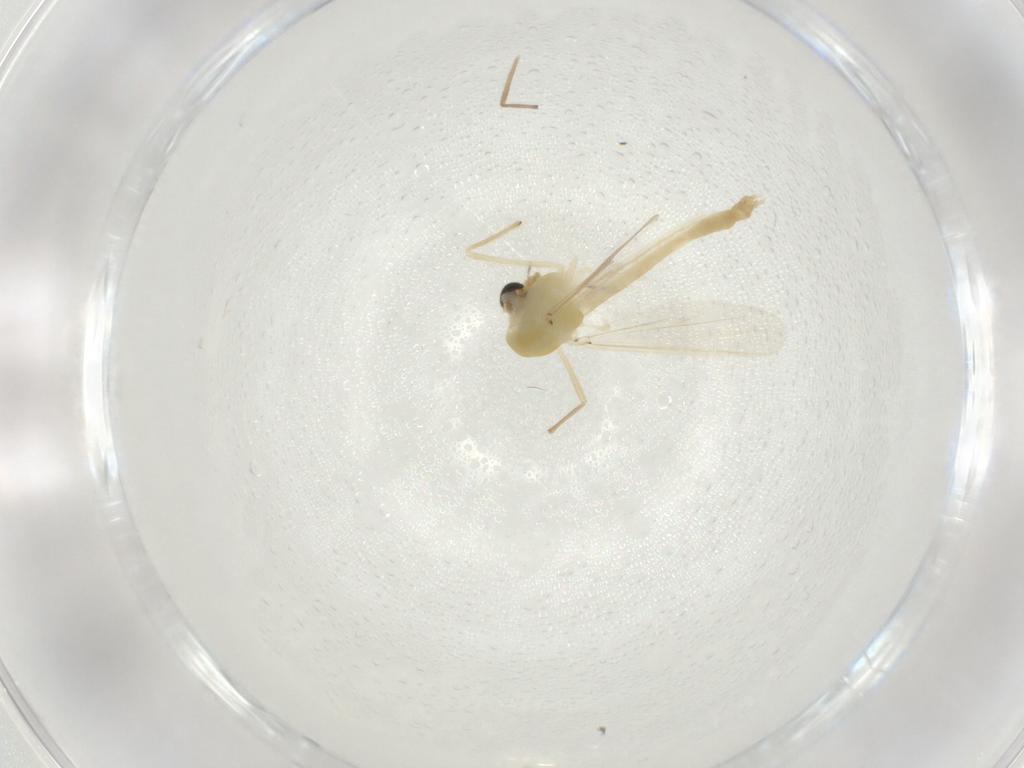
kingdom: Animalia
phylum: Arthropoda
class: Insecta
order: Diptera
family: Chironomidae
